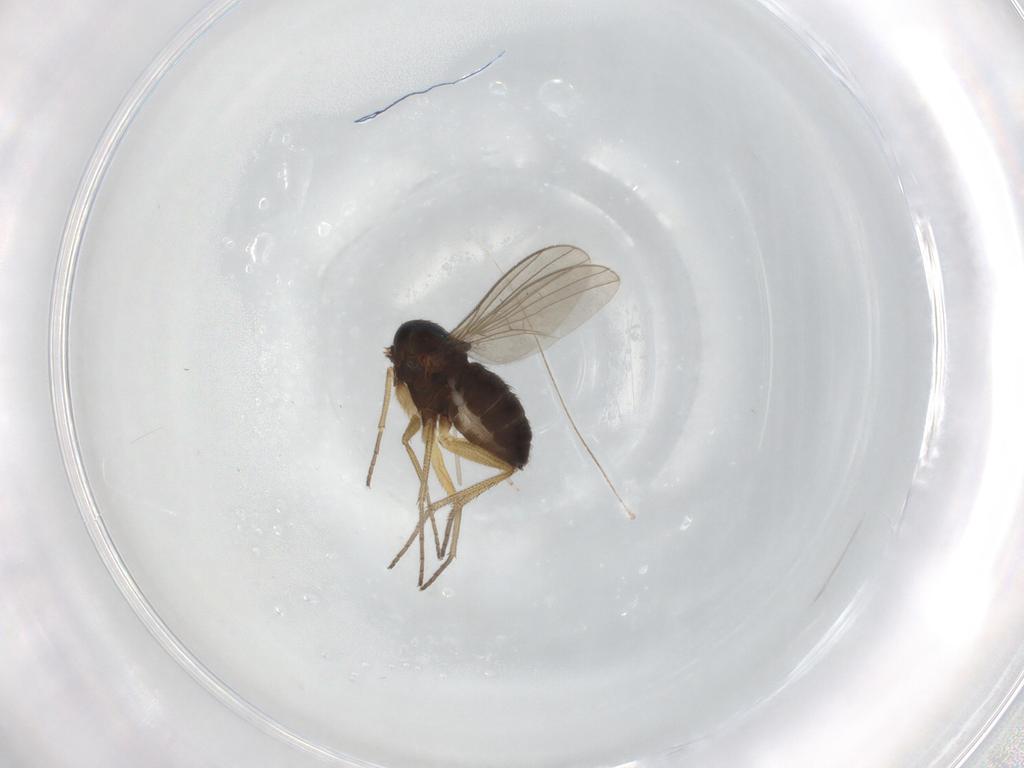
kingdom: Animalia
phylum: Arthropoda
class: Insecta
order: Diptera
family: Dolichopodidae
